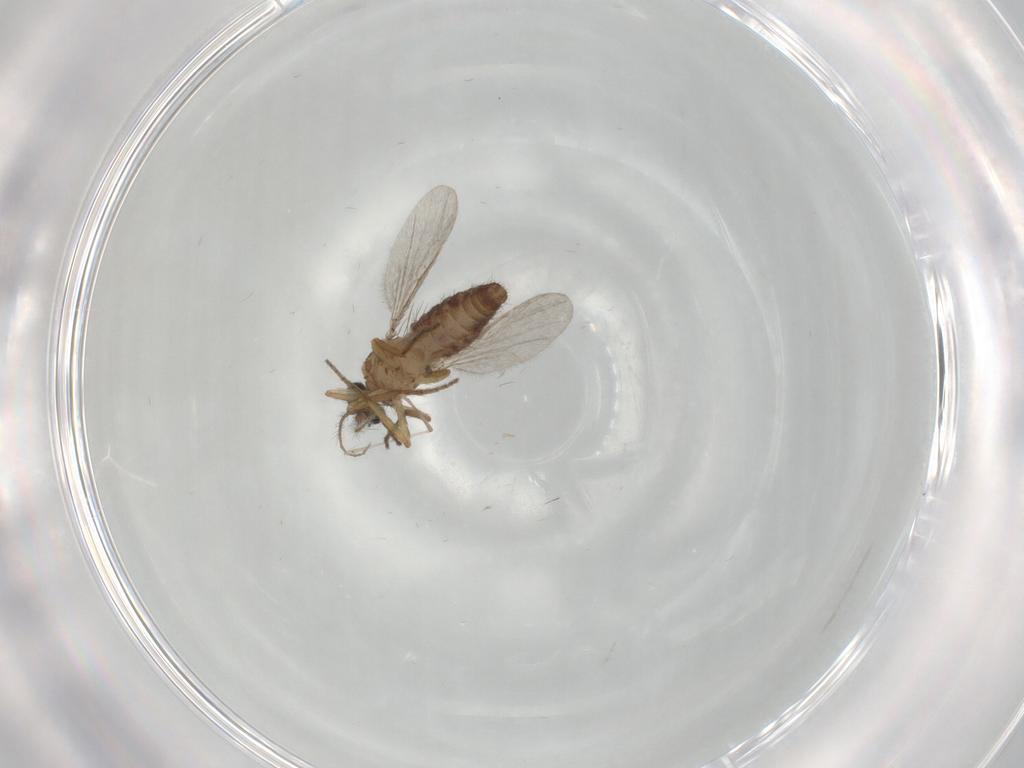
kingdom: Animalia
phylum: Arthropoda
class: Insecta
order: Diptera
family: Ceratopogonidae
